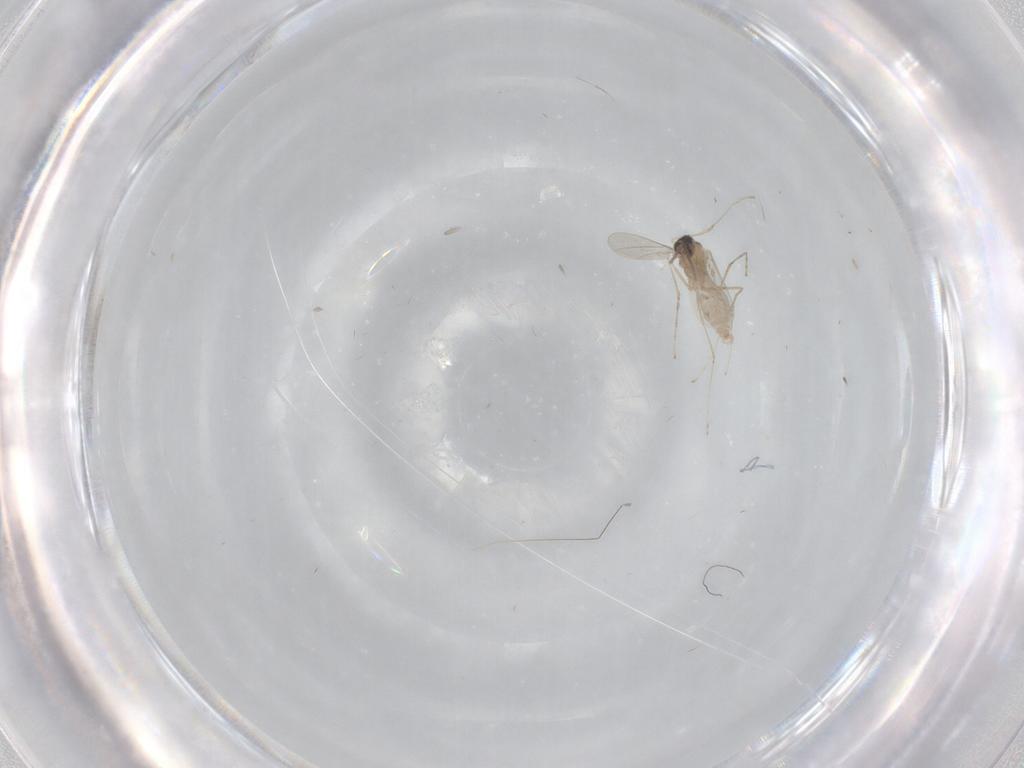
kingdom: Animalia
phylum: Arthropoda
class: Insecta
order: Diptera
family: Cecidomyiidae
